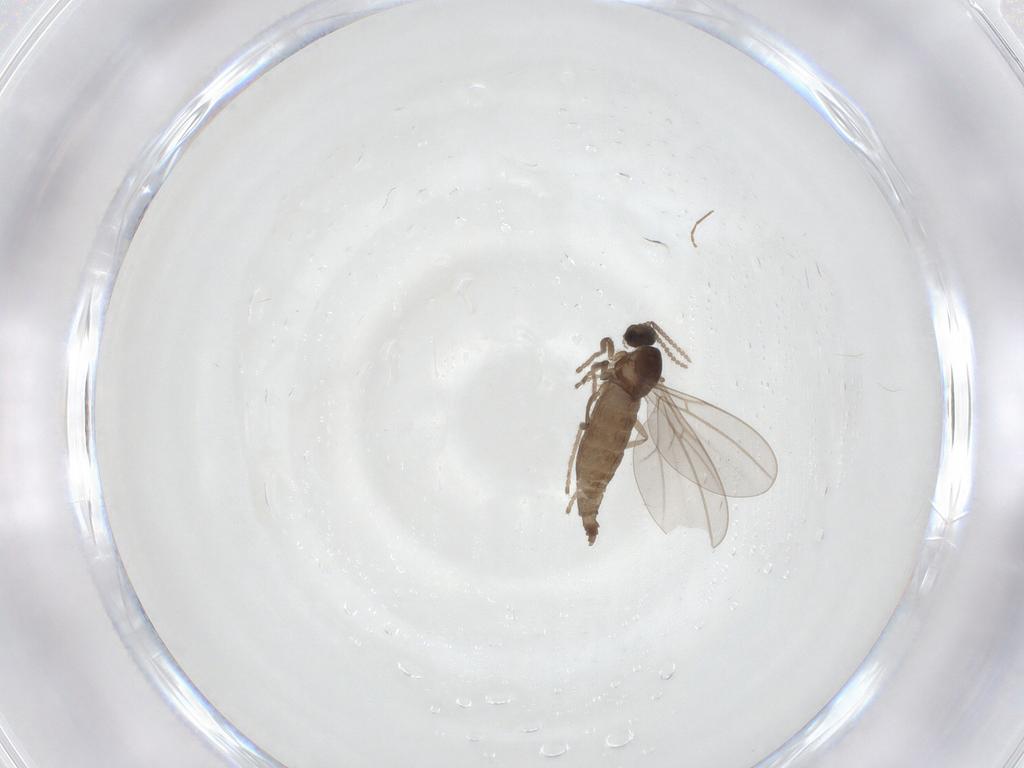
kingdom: Animalia
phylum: Arthropoda
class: Insecta
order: Diptera
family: Cecidomyiidae
